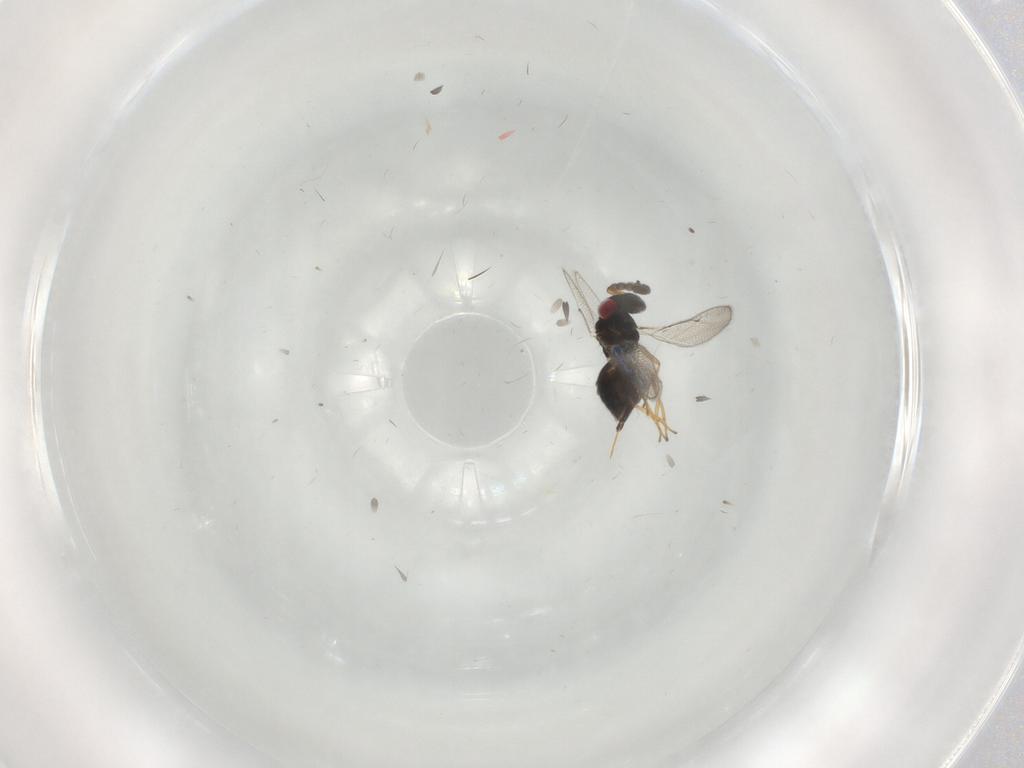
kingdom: Animalia
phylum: Arthropoda
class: Insecta
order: Hymenoptera
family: Eulophidae
